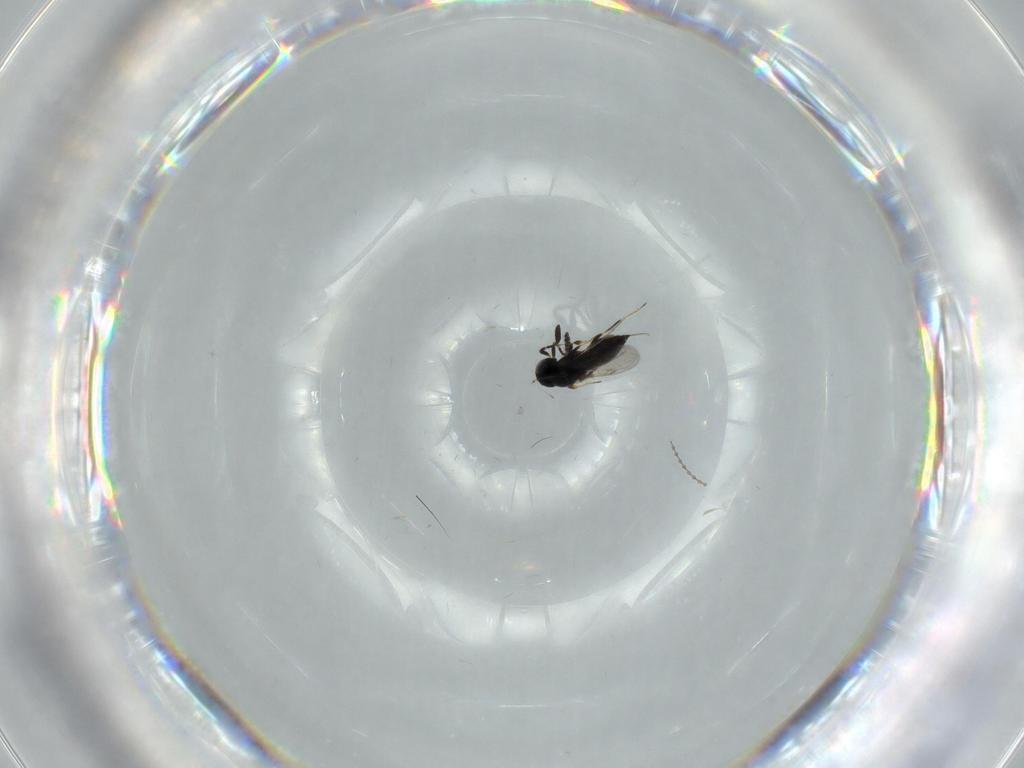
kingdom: Animalia
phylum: Arthropoda
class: Insecta
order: Hymenoptera
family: Scelionidae
